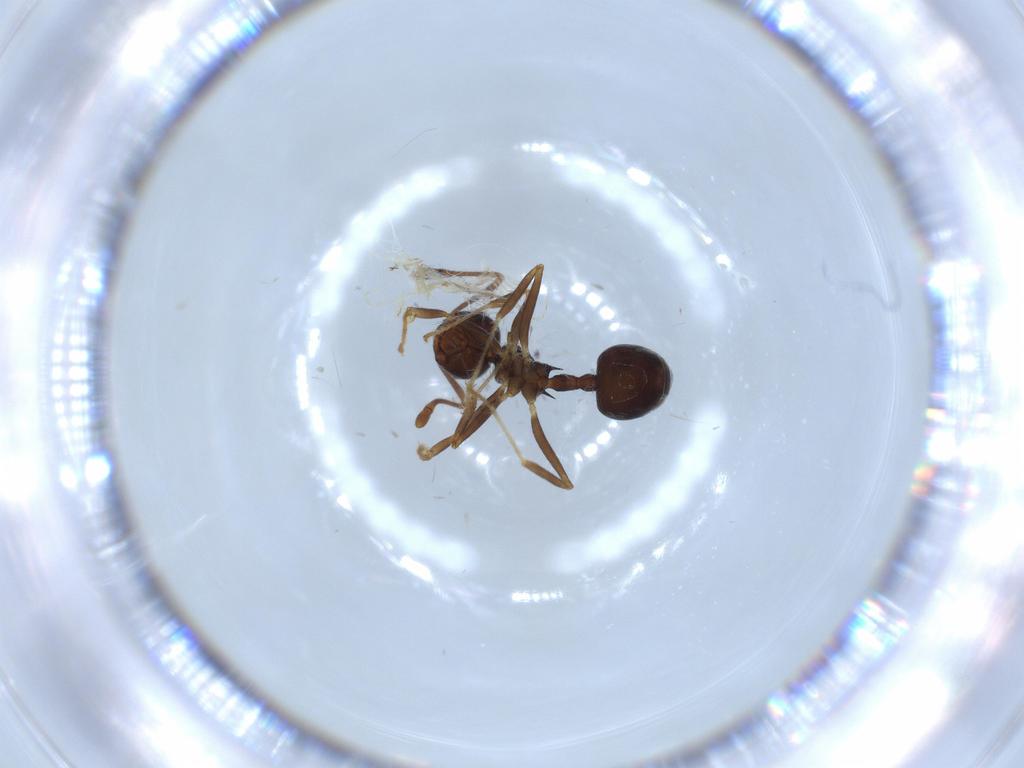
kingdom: Animalia
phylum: Arthropoda
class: Insecta
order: Hymenoptera
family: Formicidae
